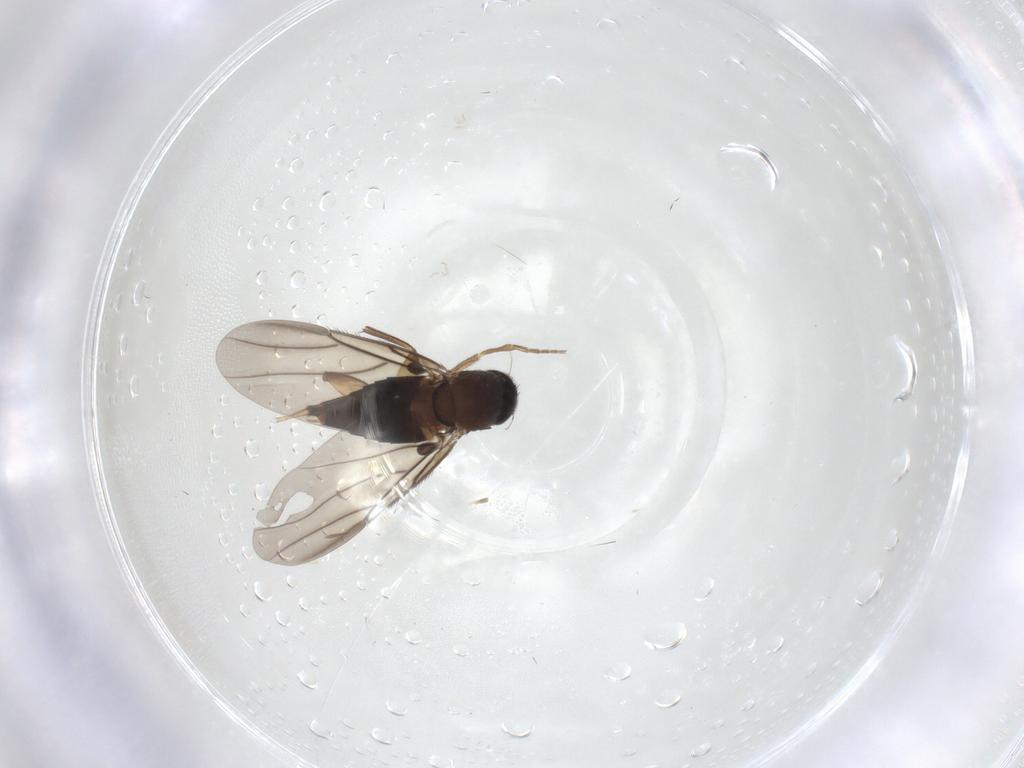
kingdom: Animalia
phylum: Arthropoda
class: Insecta
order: Diptera
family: Phoridae
